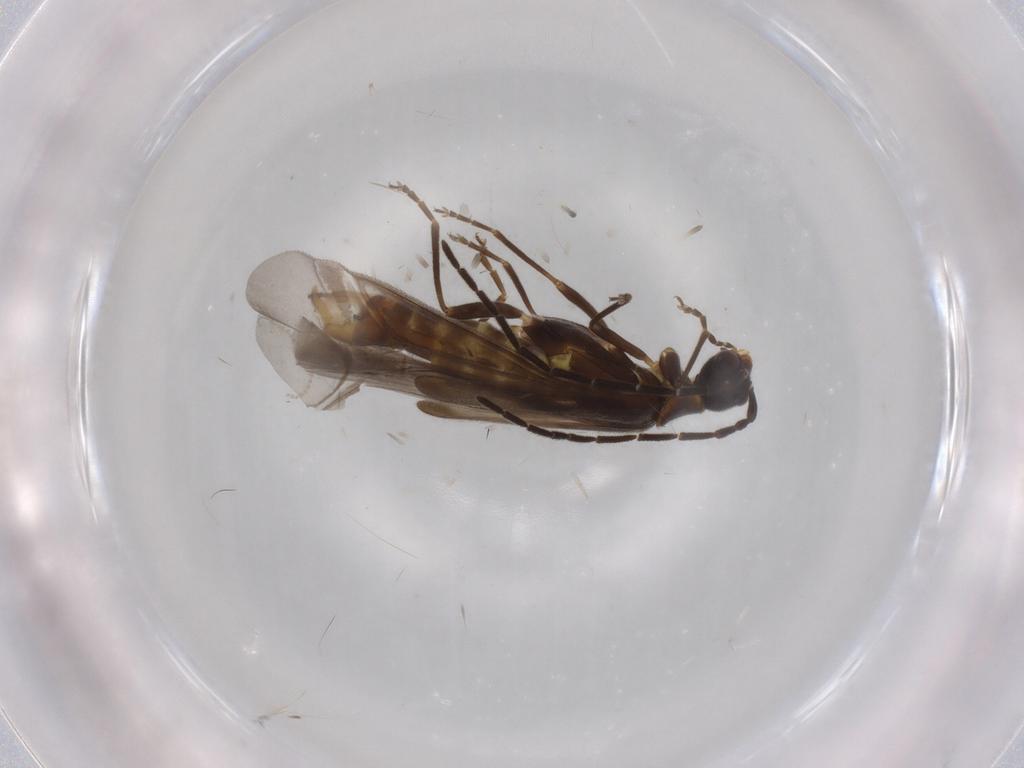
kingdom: Animalia
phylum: Arthropoda
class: Insecta
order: Coleoptera
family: Cantharidae
